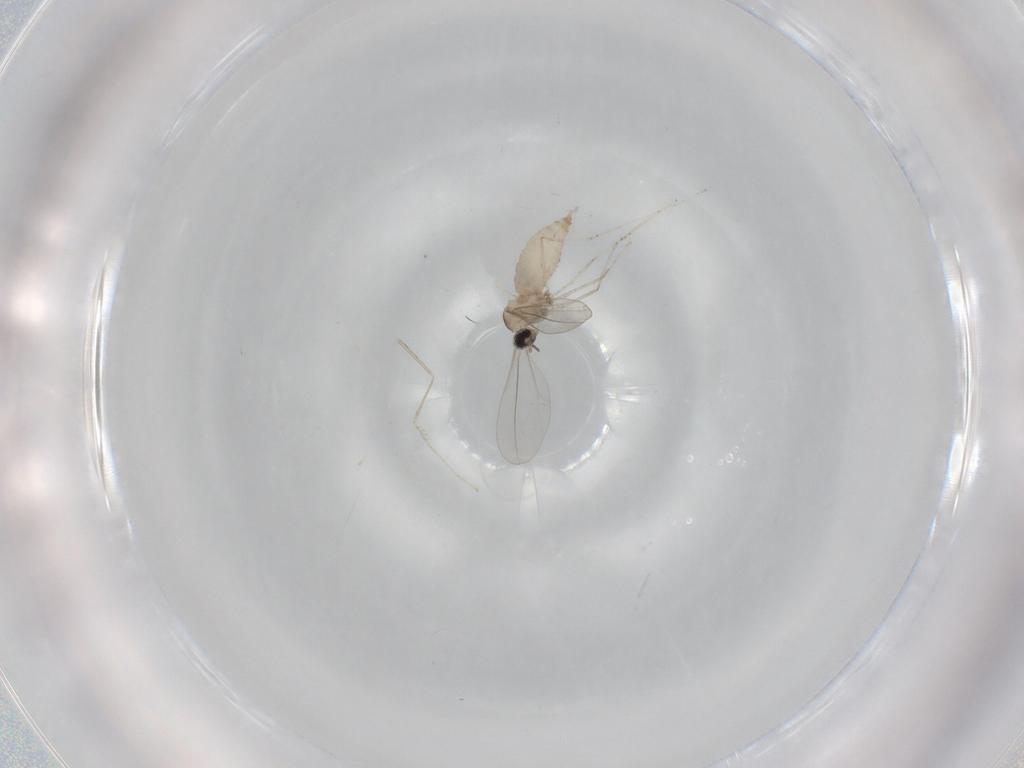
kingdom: Animalia
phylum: Arthropoda
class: Insecta
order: Diptera
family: Cecidomyiidae
